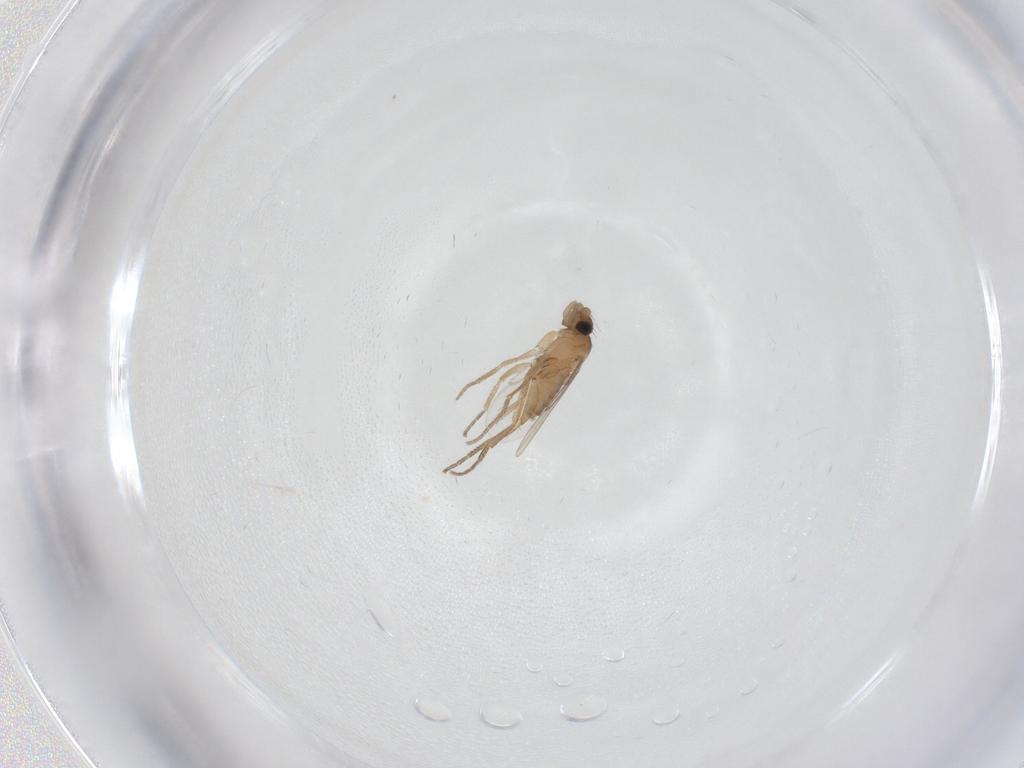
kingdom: Animalia
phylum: Arthropoda
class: Insecta
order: Diptera
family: Phoridae
